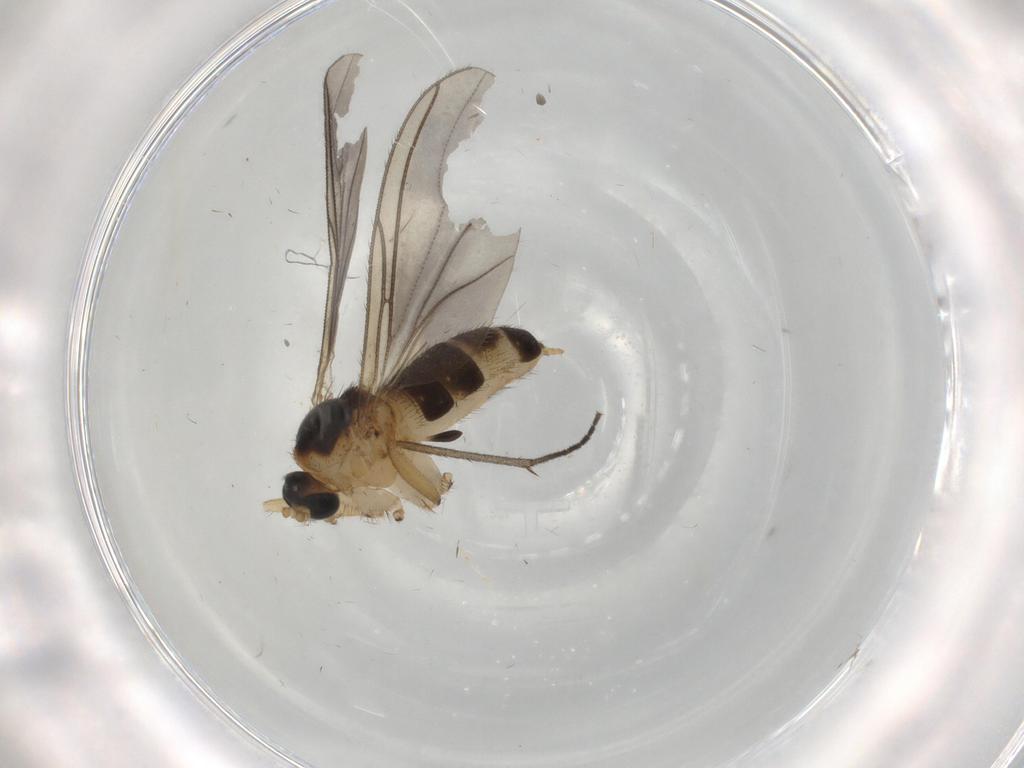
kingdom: Animalia
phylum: Arthropoda
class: Insecta
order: Diptera
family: Sciaridae
